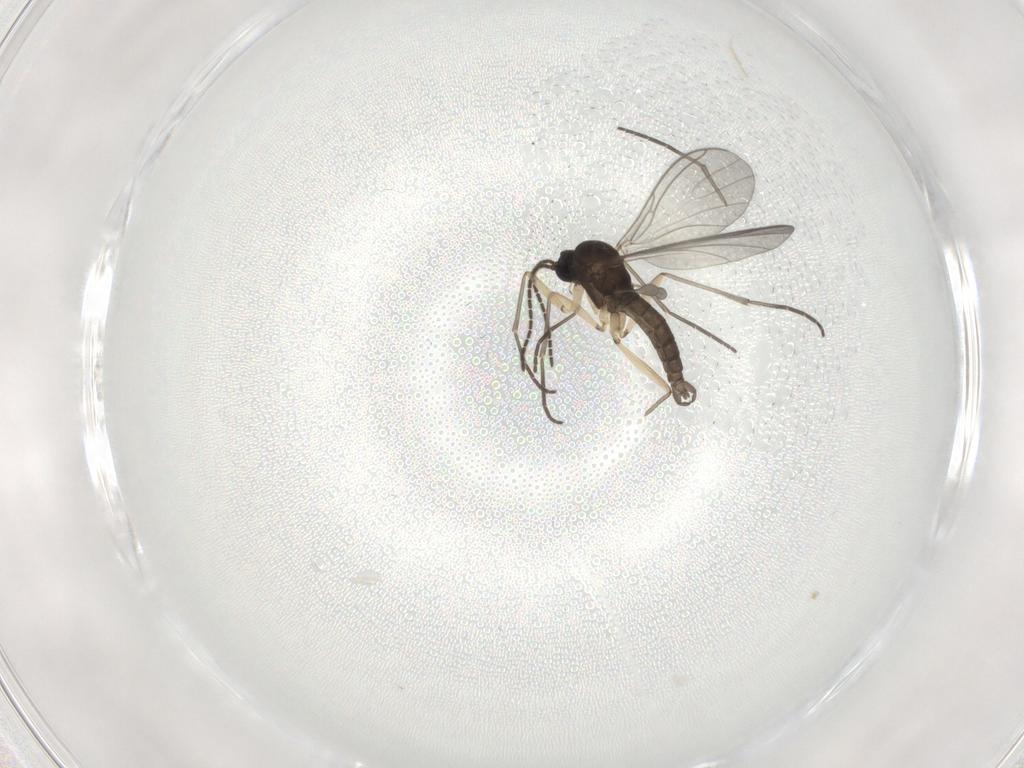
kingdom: Animalia
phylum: Arthropoda
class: Insecta
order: Diptera
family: Sciaridae
